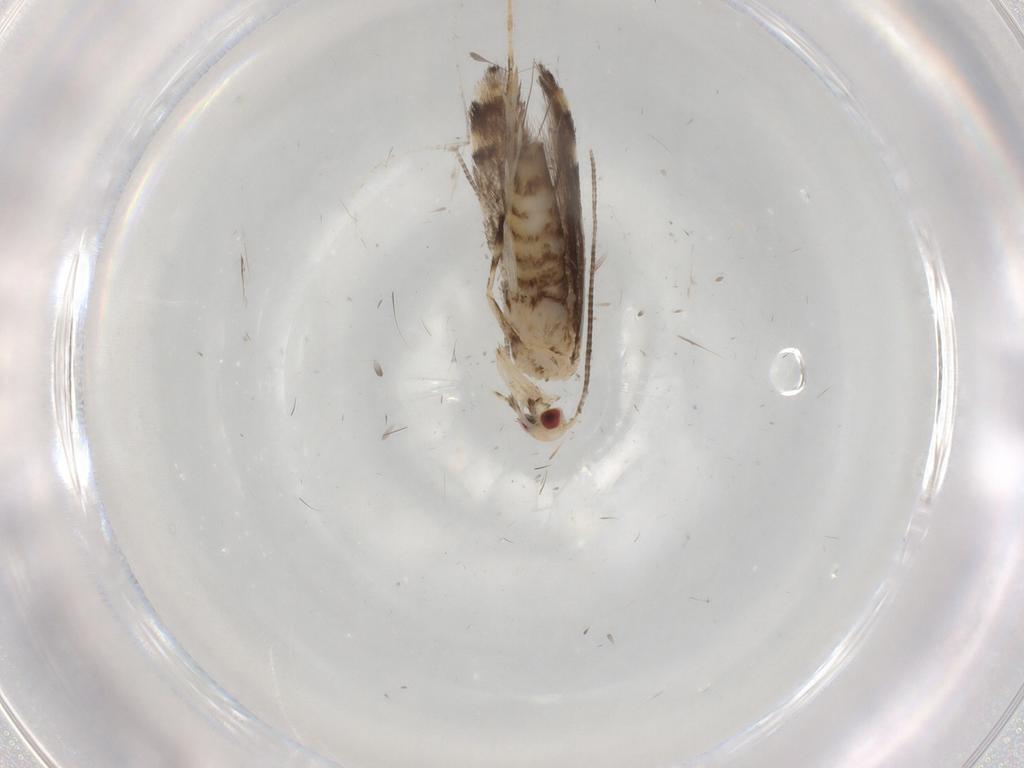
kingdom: Animalia
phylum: Arthropoda
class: Insecta
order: Lepidoptera
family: Gracillariidae
